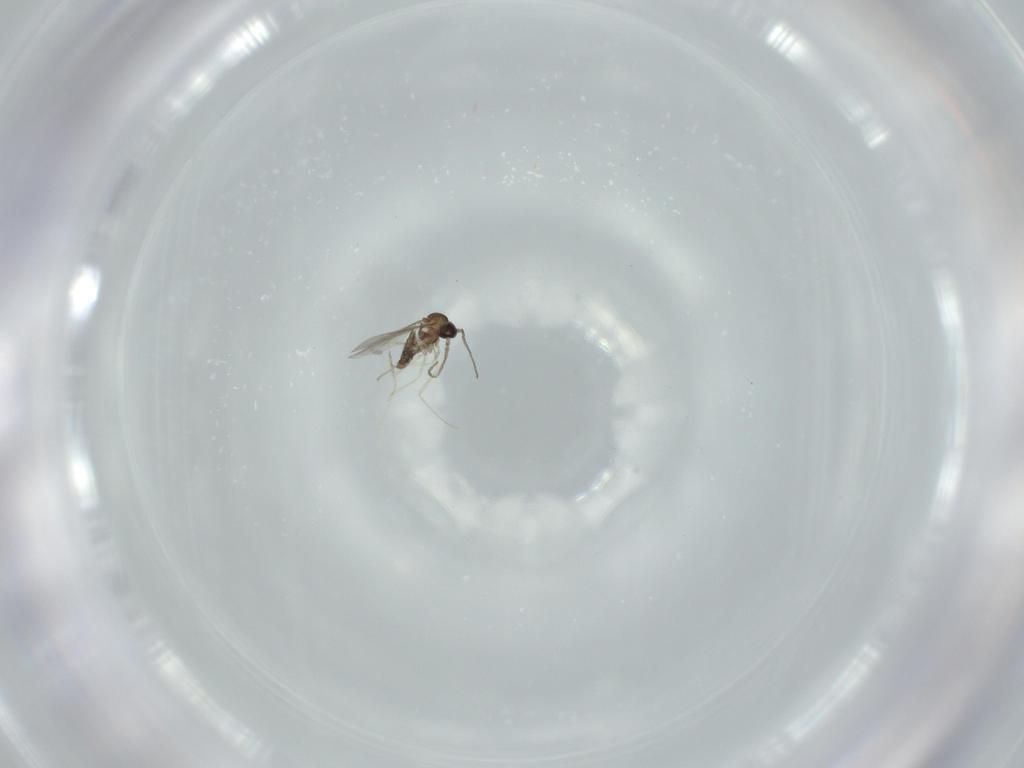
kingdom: Animalia
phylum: Arthropoda
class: Insecta
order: Diptera
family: Cecidomyiidae
